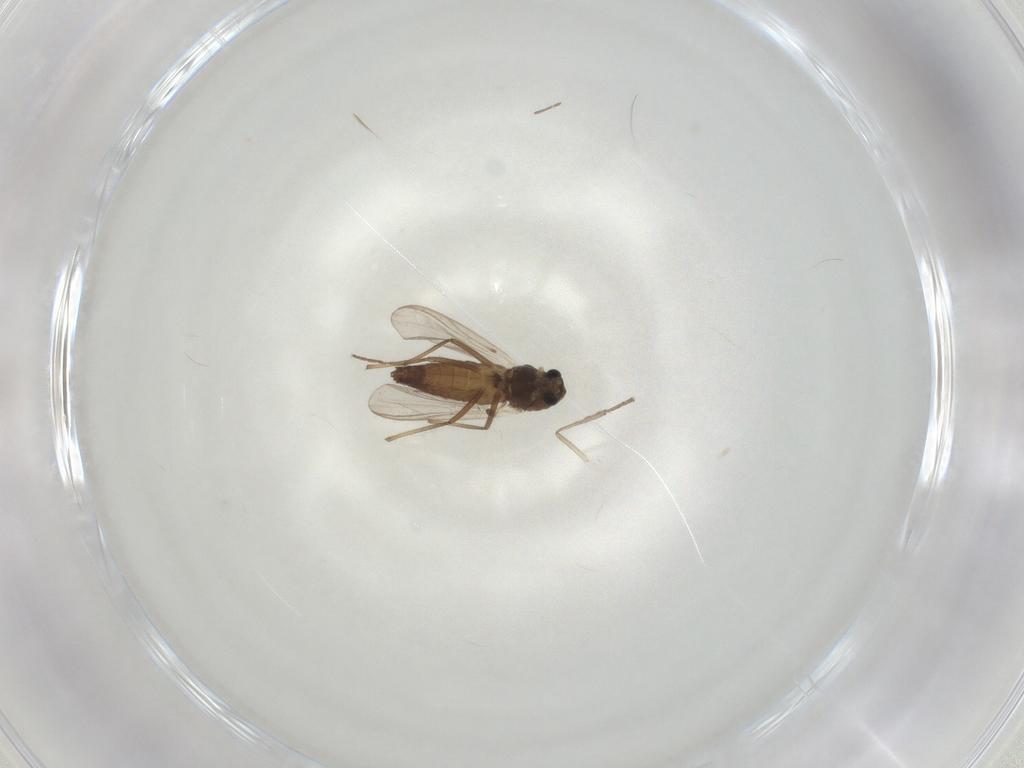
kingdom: Animalia
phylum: Arthropoda
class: Insecta
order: Diptera
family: Chironomidae
